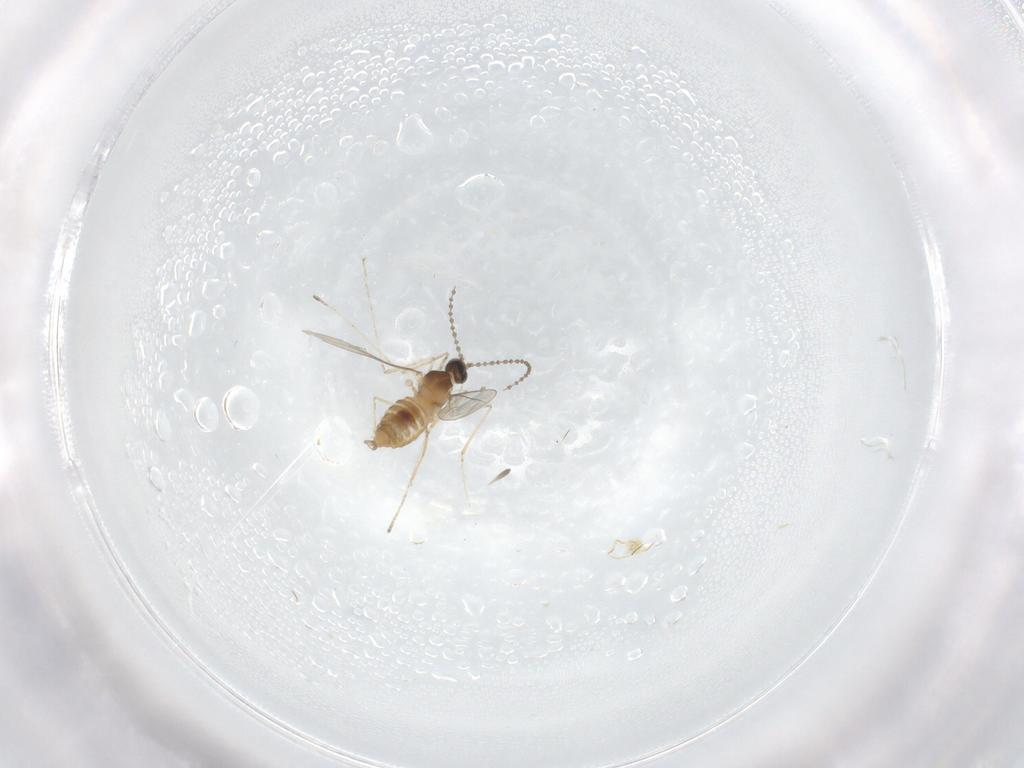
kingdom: Animalia
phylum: Arthropoda
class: Insecta
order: Diptera
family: Cecidomyiidae
